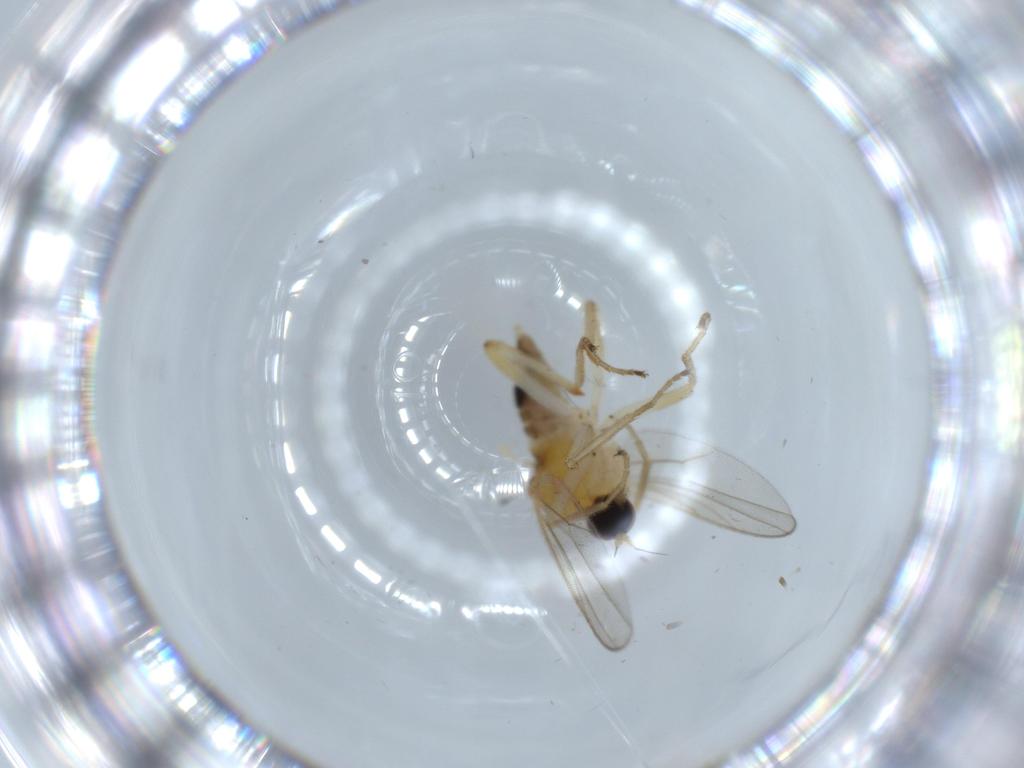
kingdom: Animalia
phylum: Arthropoda
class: Insecta
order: Diptera
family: Hybotidae
